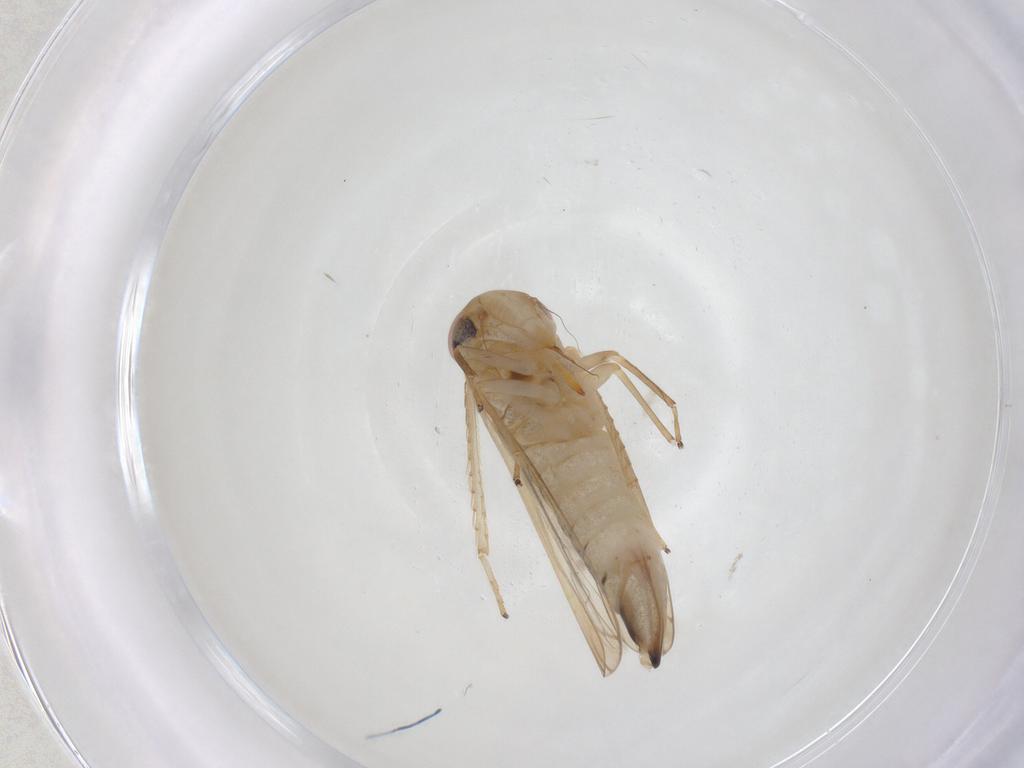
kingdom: Animalia
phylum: Arthropoda
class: Insecta
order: Hemiptera
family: Cicadellidae
